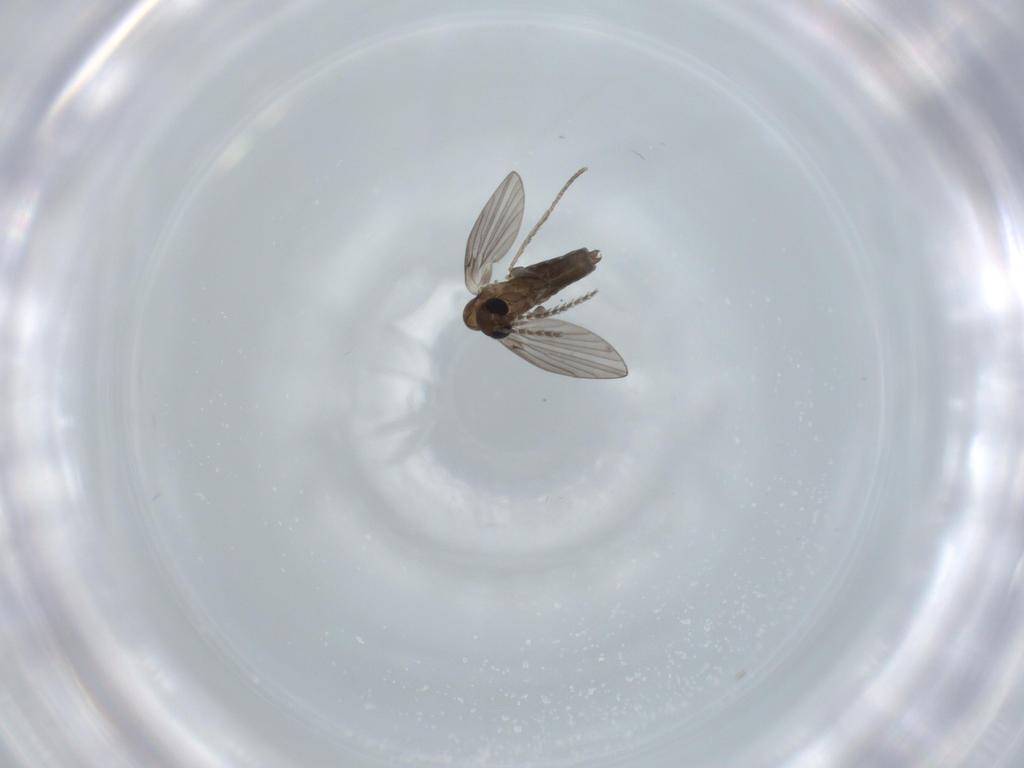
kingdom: Animalia
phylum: Arthropoda
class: Insecta
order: Diptera
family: Psychodidae
